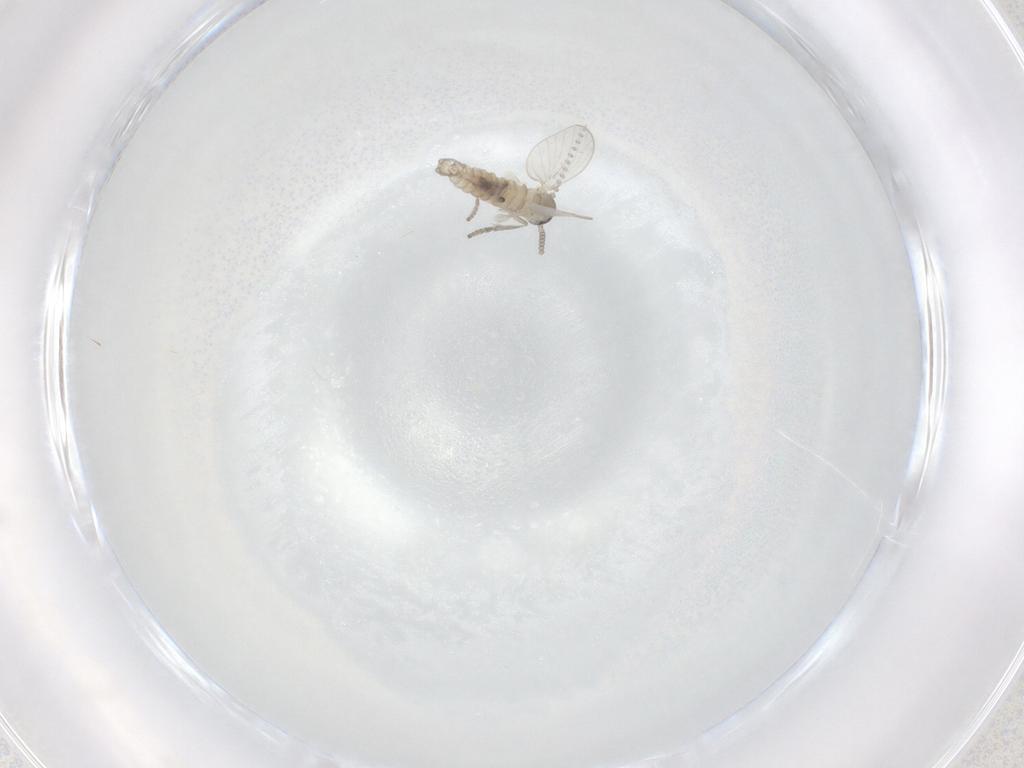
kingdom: Animalia
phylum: Arthropoda
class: Insecta
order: Diptera
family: Psychodidae
